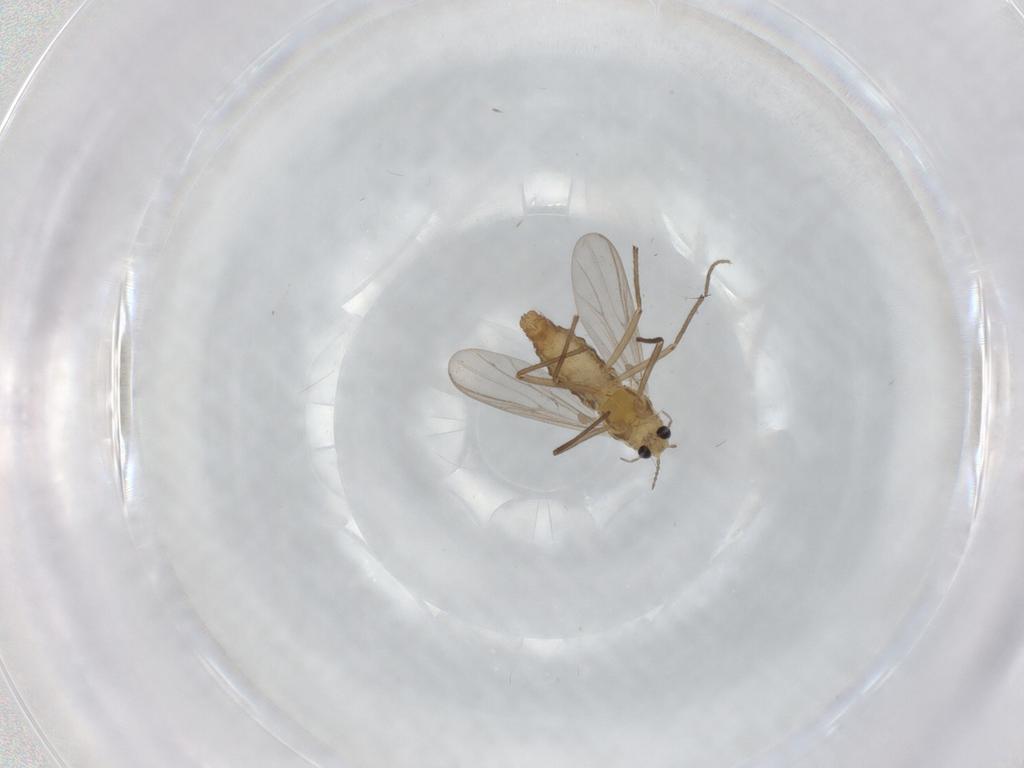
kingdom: Animalia
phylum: Arthropoda
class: Insecta
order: Diptera
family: Chironomidae
